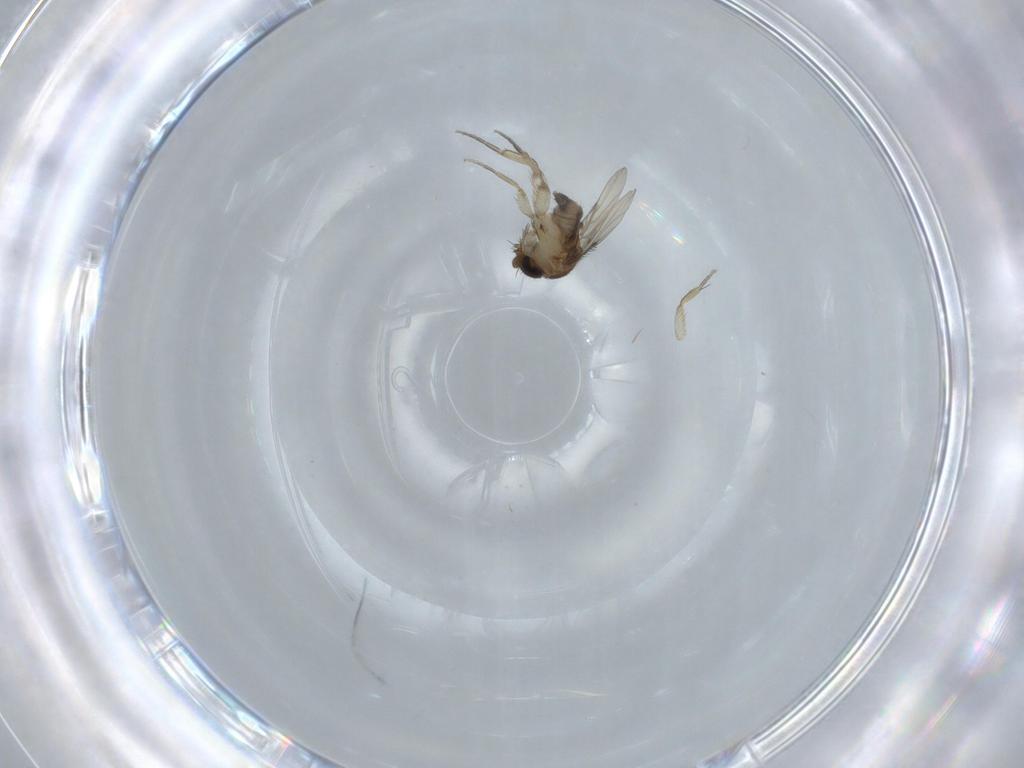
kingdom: Animalia
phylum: Arthropoda
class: Insecta
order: Diptera
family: Phoridae
